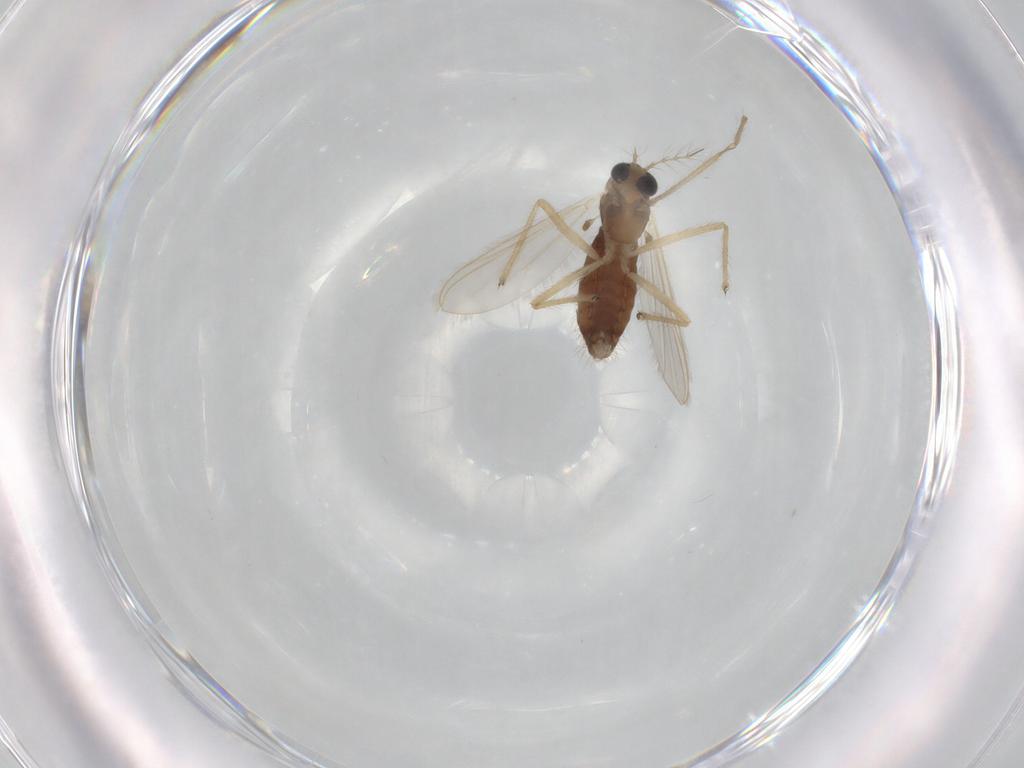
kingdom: Animalia
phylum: Arthropoda
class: Insecta
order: Diptera
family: Chironomidae
